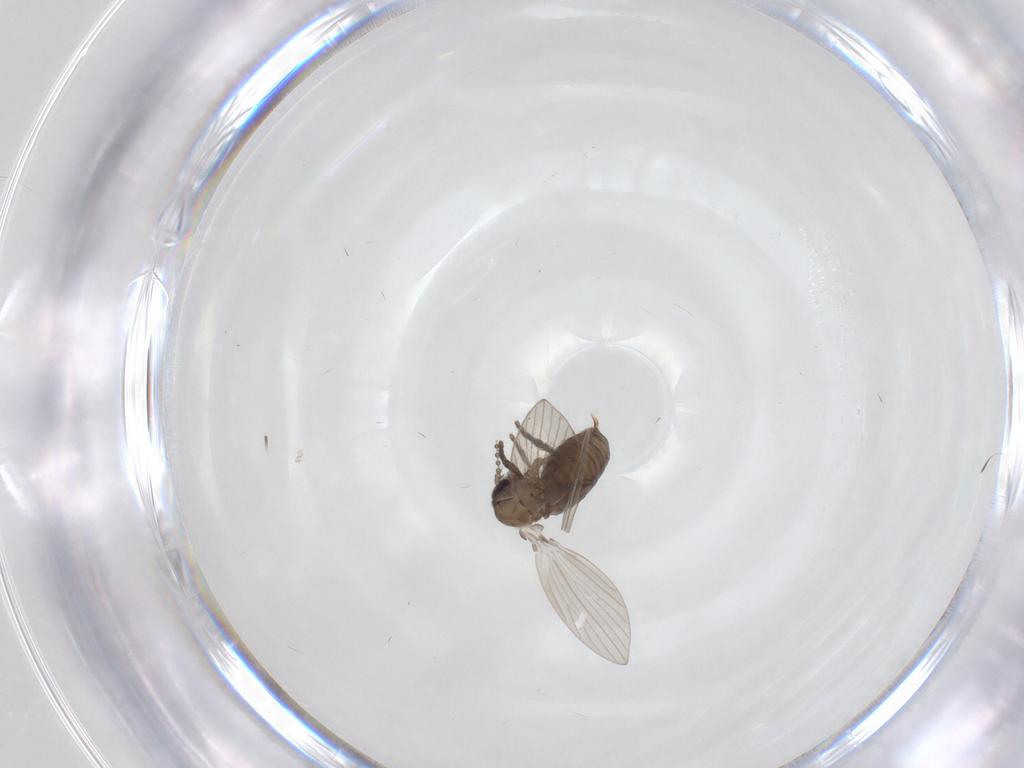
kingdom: Animalia
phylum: Arthropoda
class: Insecta
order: Diptera
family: Psychodidae
